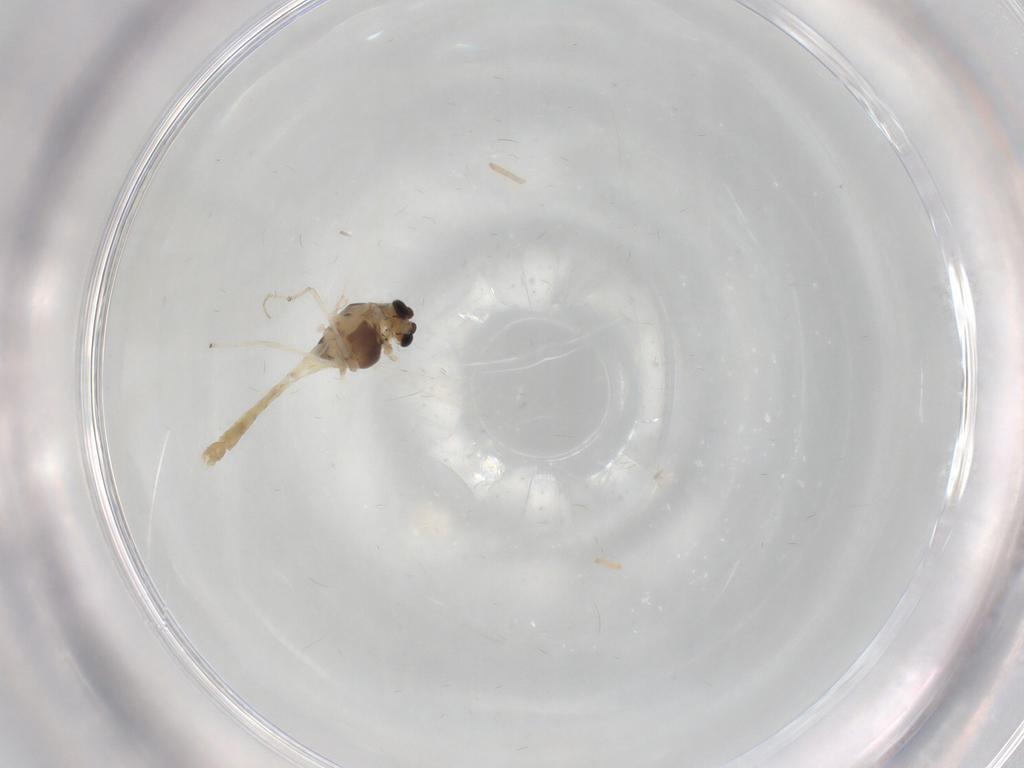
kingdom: Animalia
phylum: Arthropoda
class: Insecta
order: Diptera
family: Chironomidae
